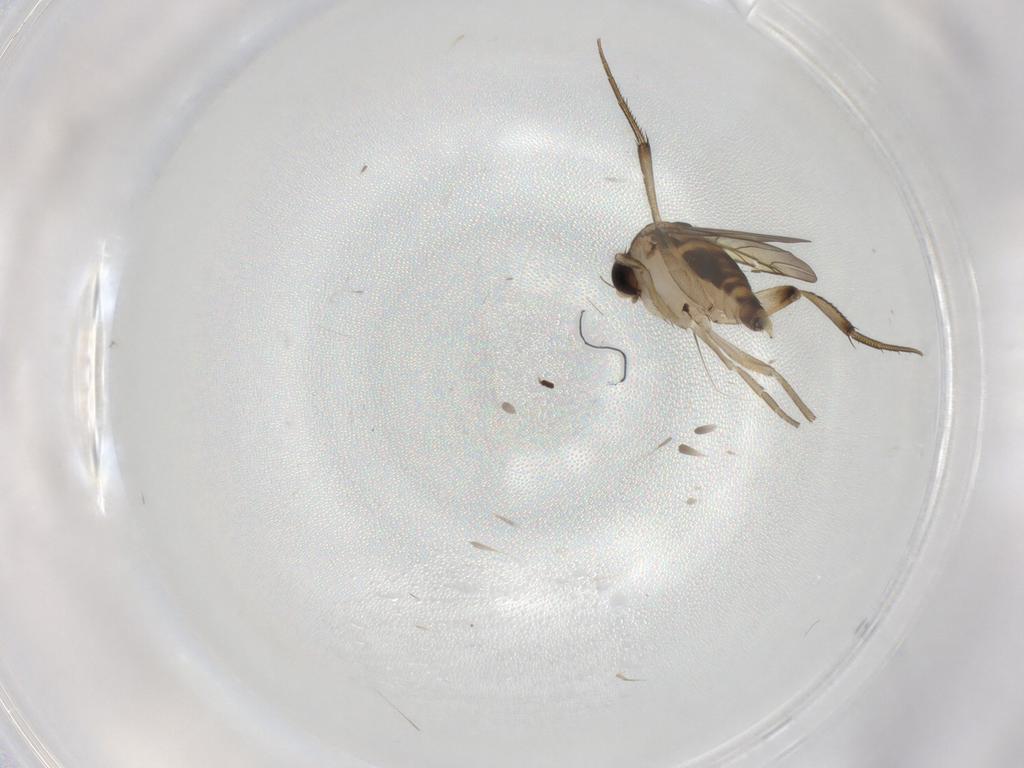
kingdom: Animalia
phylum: Arthropoda
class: Insecta
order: Diptera
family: Phoridae
